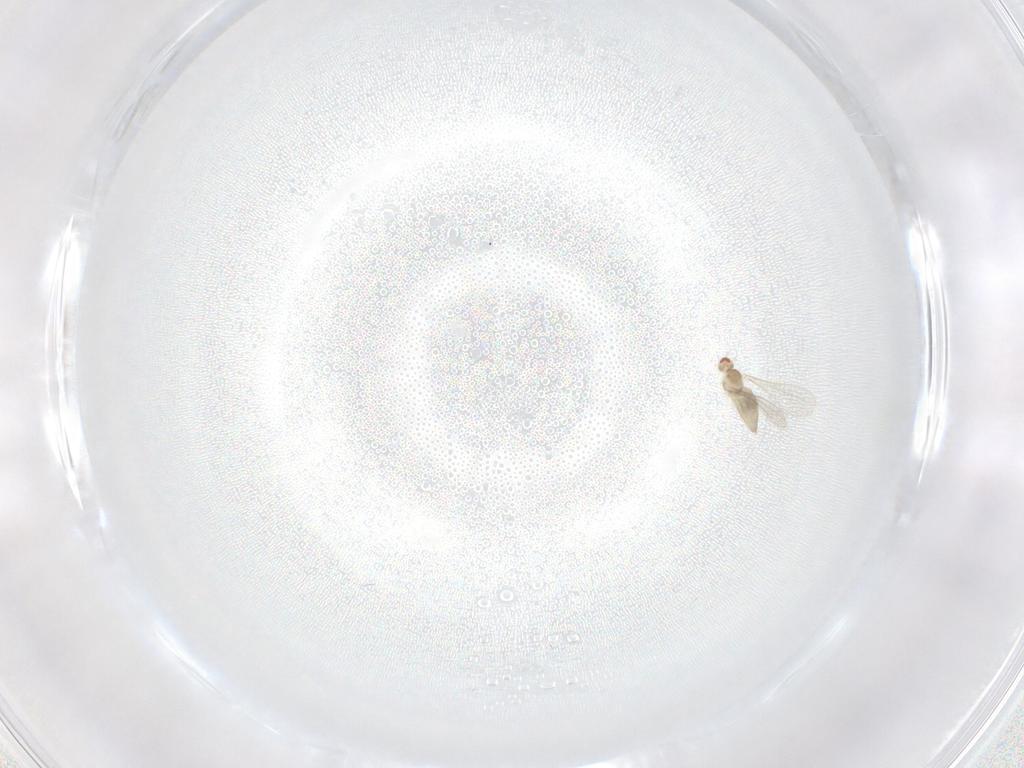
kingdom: Animalia
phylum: Arthropoda
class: Insecta
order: Diptera
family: Cecidomyiidae
